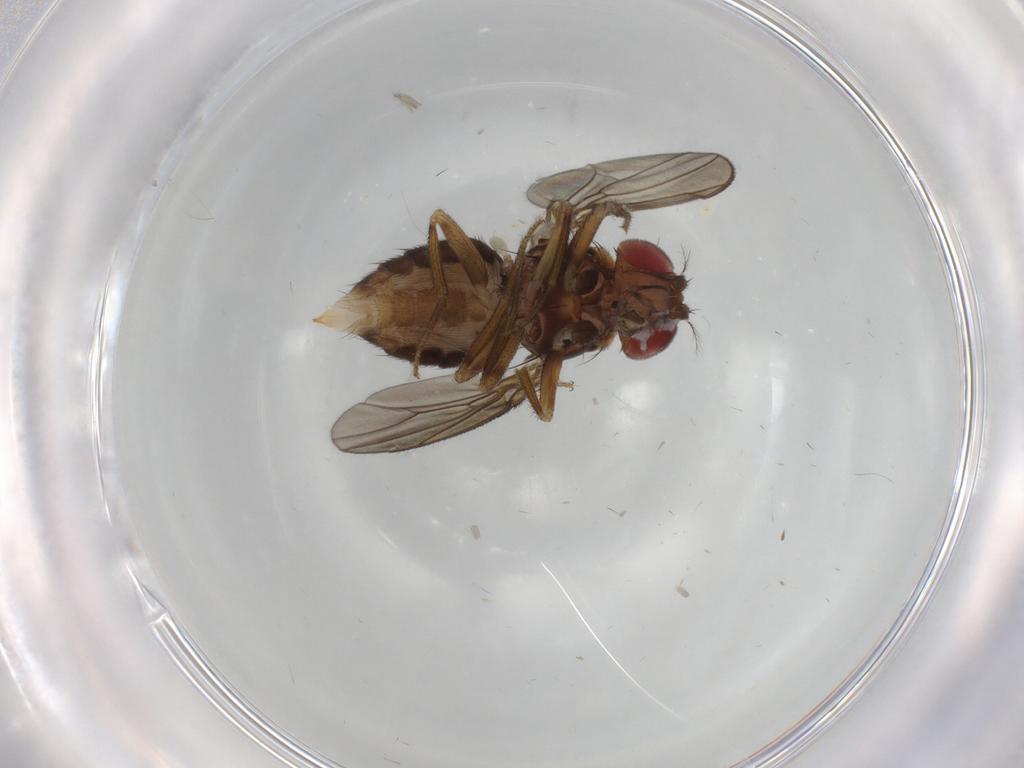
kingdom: Animalia
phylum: Arthropoda
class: Insecta
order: Diptera
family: Drosophilidae
